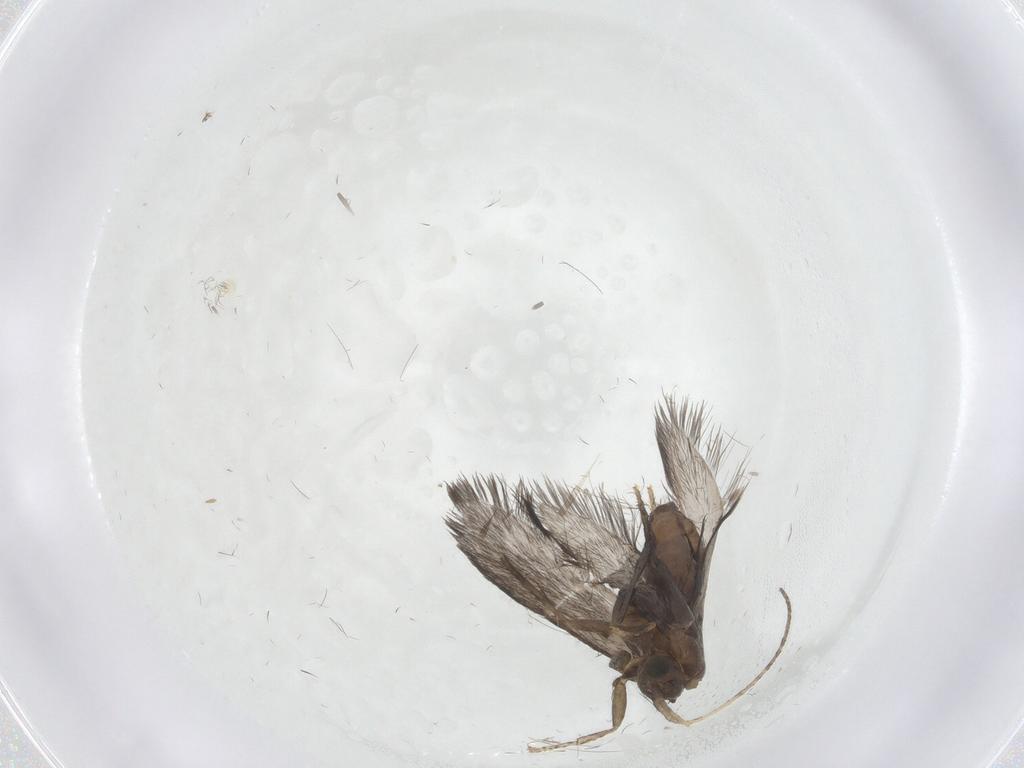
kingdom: Animalia
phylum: Arthropoda
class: Insecta
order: Trichoptera
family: Glossosomatidae
